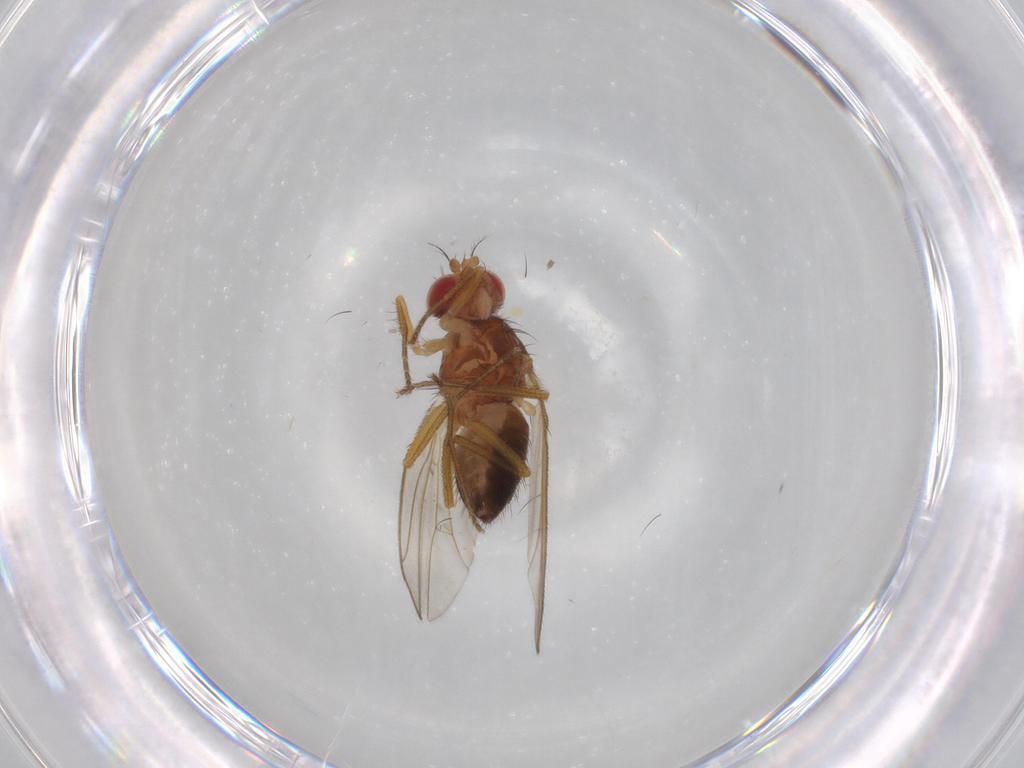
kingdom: Animalia
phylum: Arthropoda
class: Insecta
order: Diptera
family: Drosophilidae
